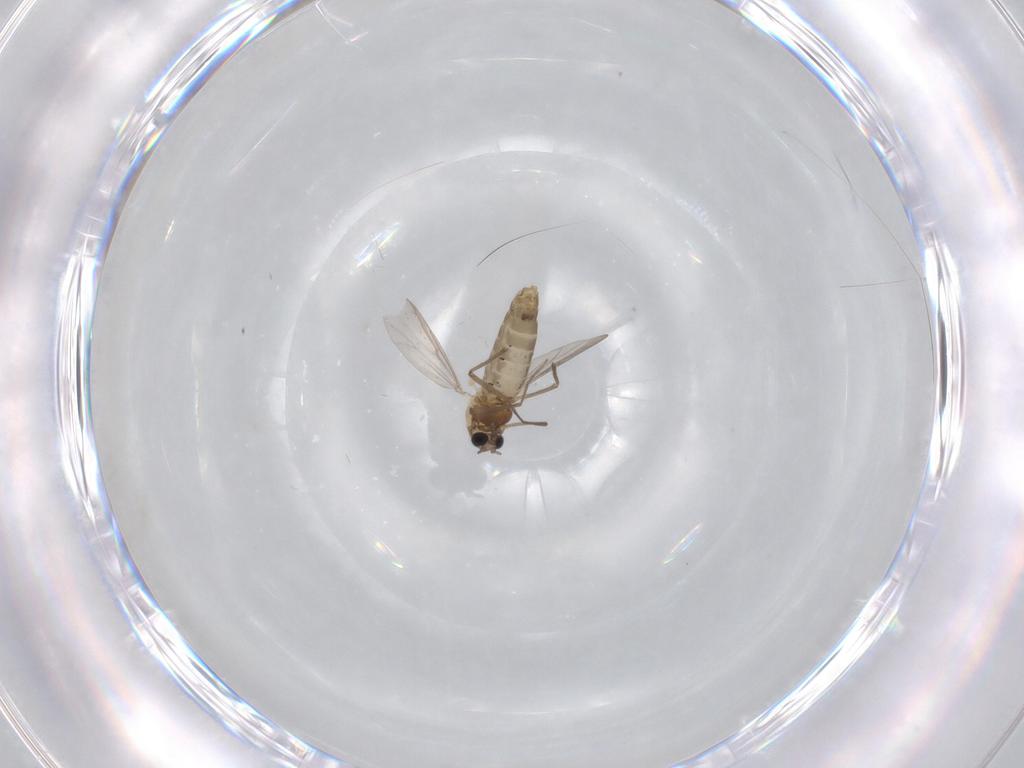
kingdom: Animalia
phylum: Arthropoda
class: Insecta
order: Diptera
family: Chironomidae
